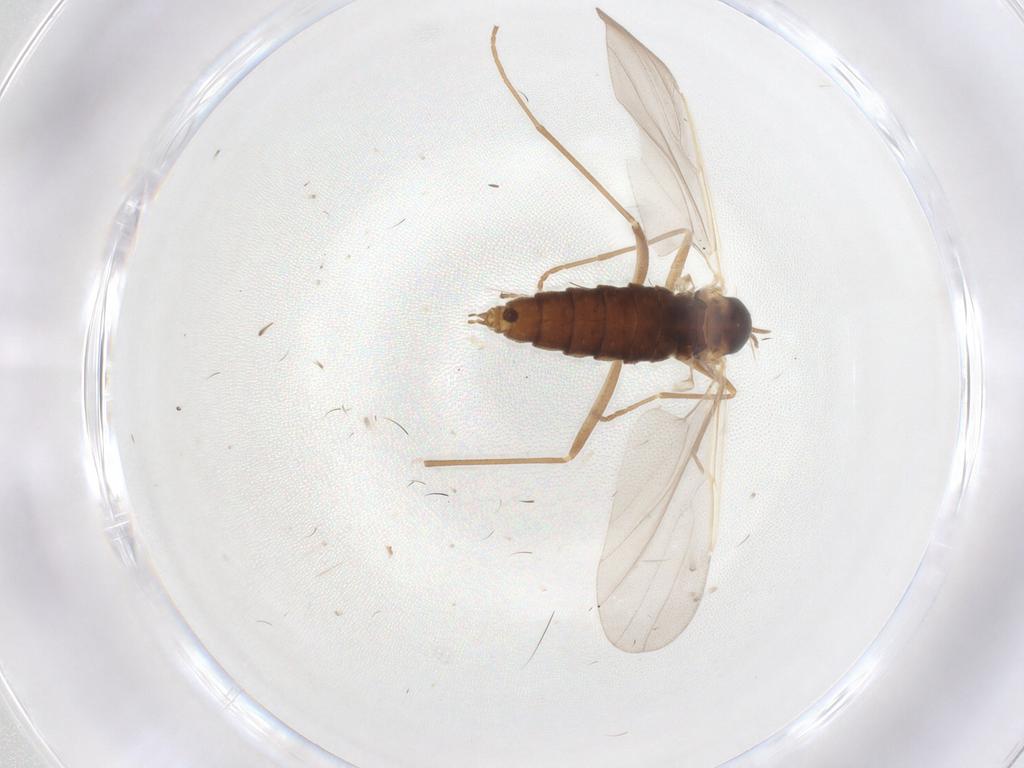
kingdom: Animalia
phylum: Arthropoda
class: Insecta
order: Diptera
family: Cecidomyiidae
